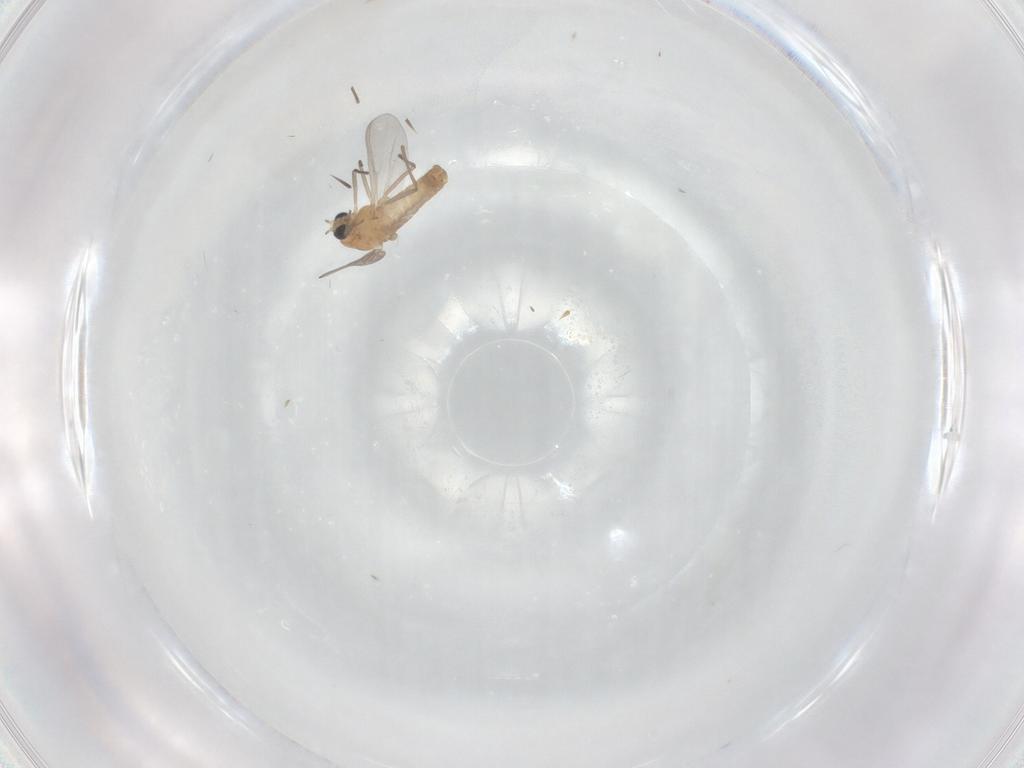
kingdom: Animalia
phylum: Arthropoda
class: Insecta
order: Diptera
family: Chironomidae
